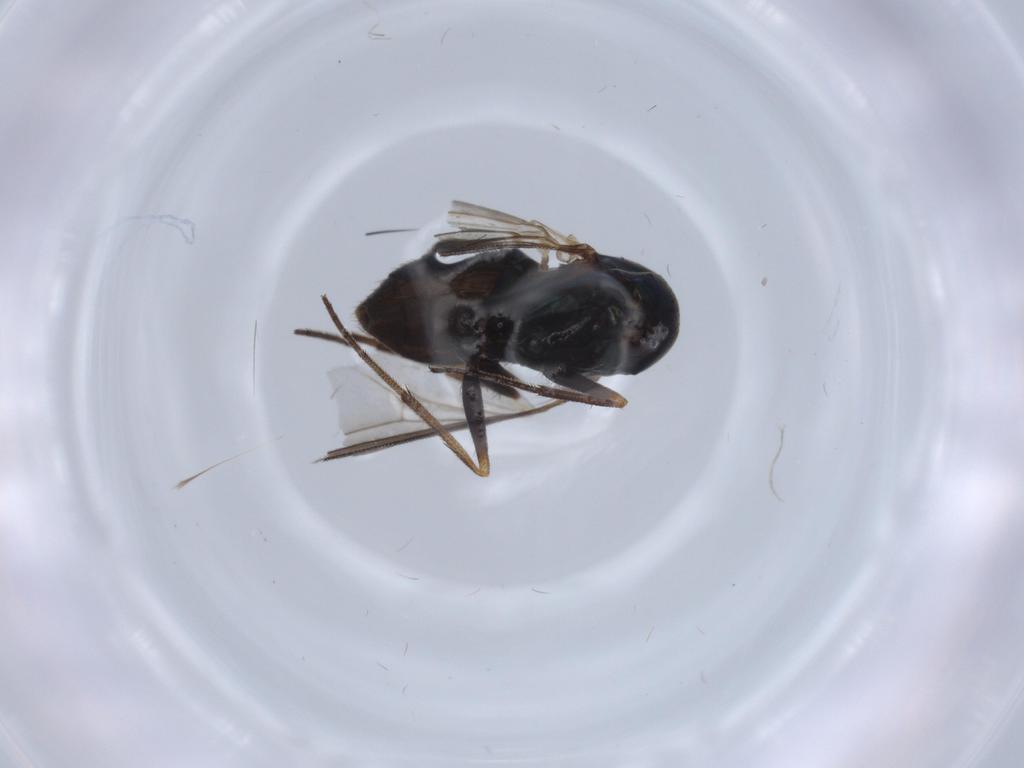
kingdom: Animalia
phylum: Arthropoda
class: Insecta
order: Diptera
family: Dolichopodidae
